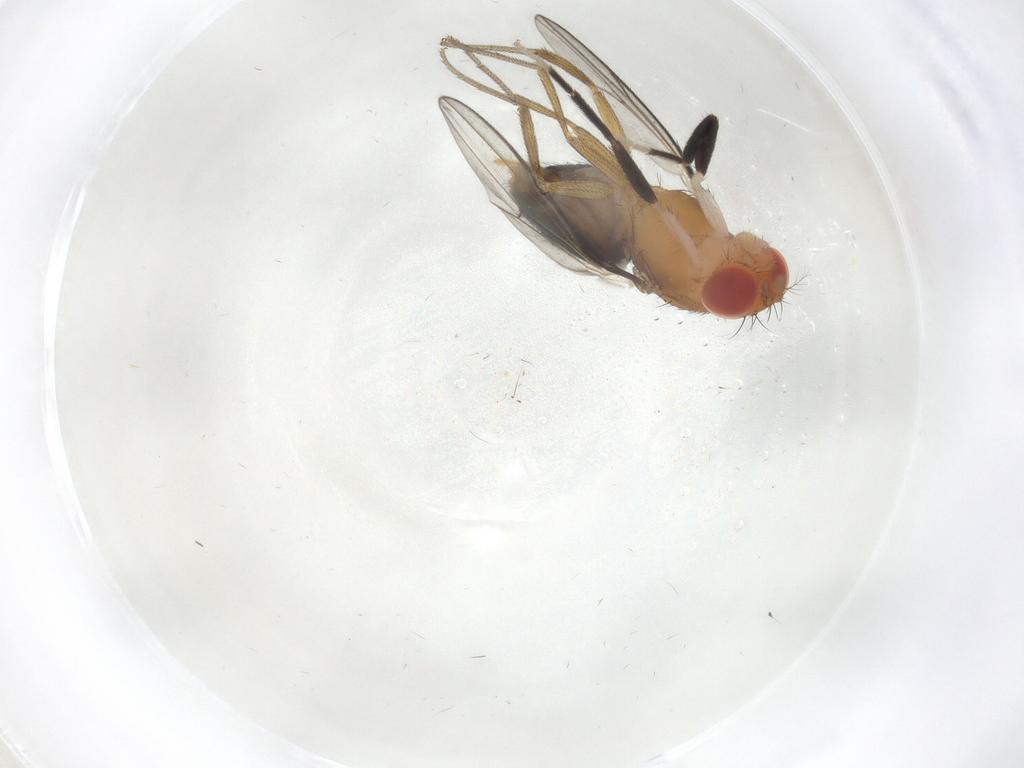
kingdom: Animalia
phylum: Arthropoda
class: Insecta
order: Diptera
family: Drosophilidae
